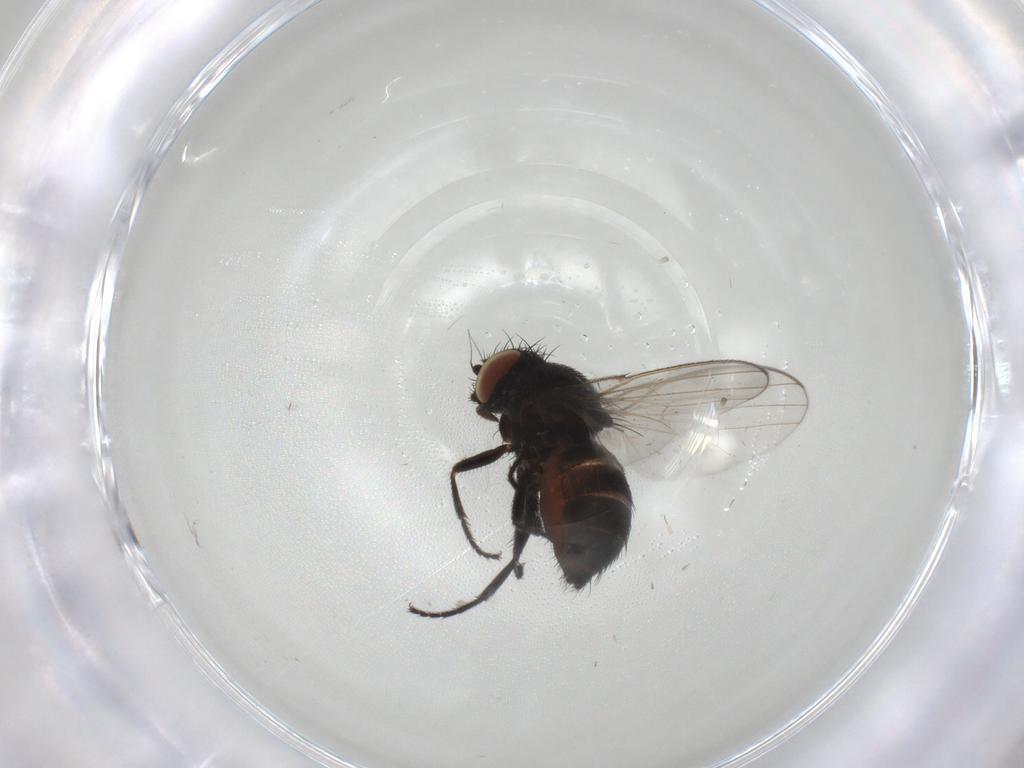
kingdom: Animalia
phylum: Arthropoda
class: Insecta
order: Diptera
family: Milichiidae
